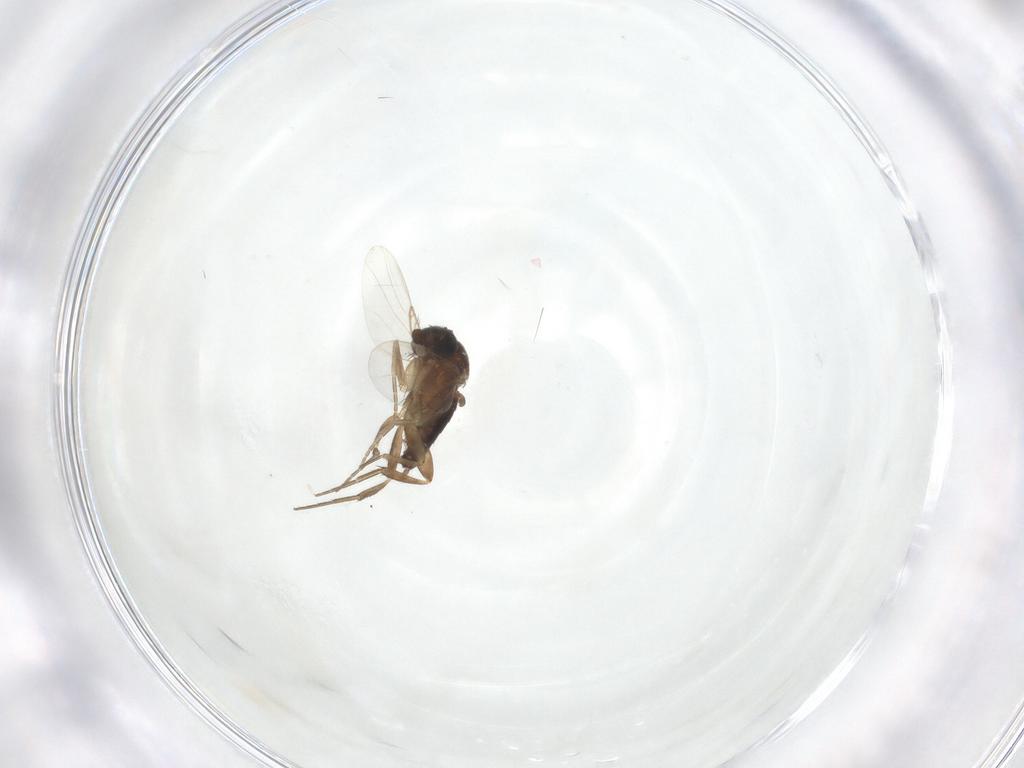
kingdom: Animalia
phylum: Arthropoda
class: Insecta
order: Diptera
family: Phoridae
